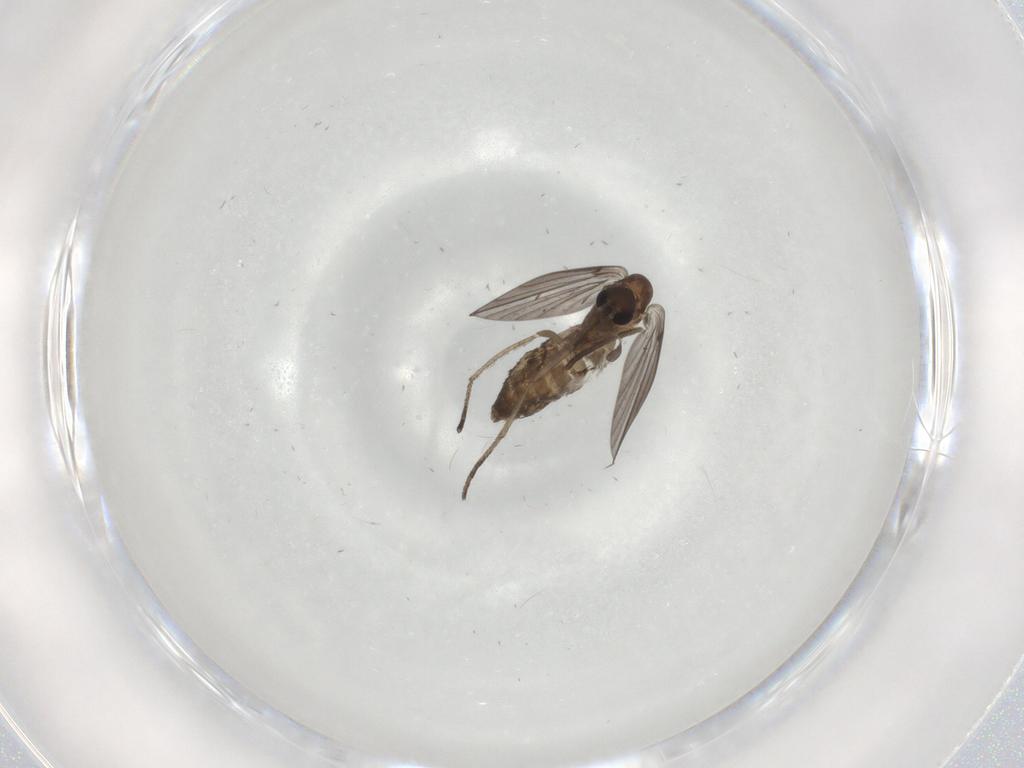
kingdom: Animalia
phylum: Arthropoda
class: Insecta
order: Diptera
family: Psychodidae
